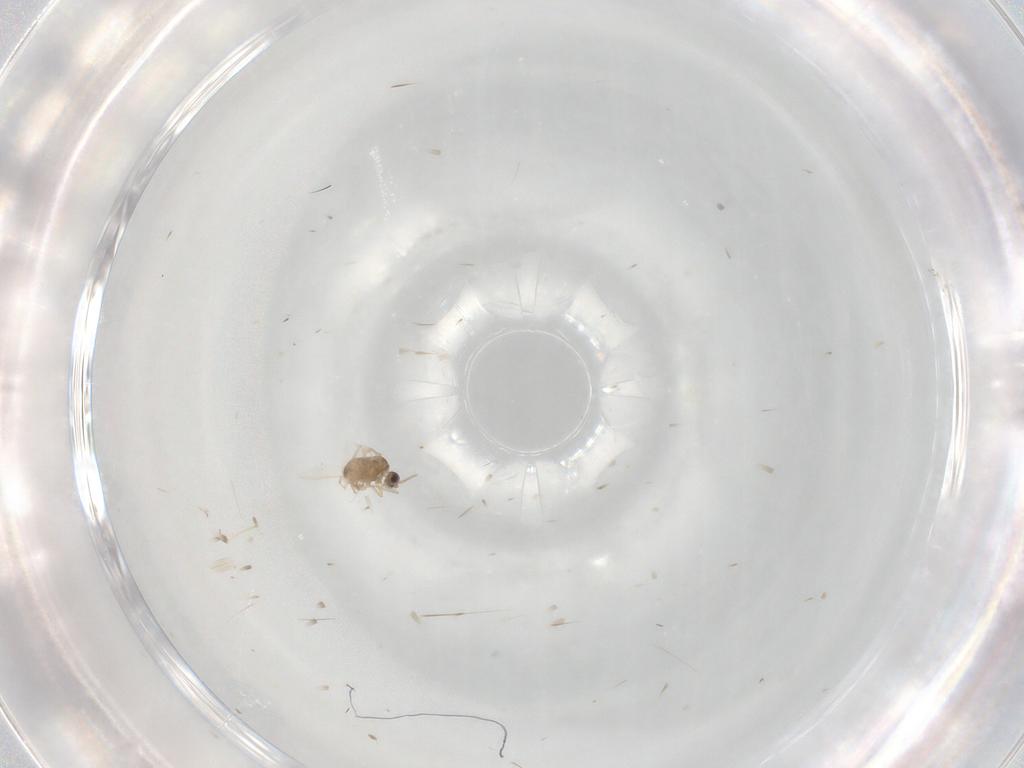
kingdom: Animalia
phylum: Arthropoda
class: Insecta
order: Diptera
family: Cecidomyiidae
